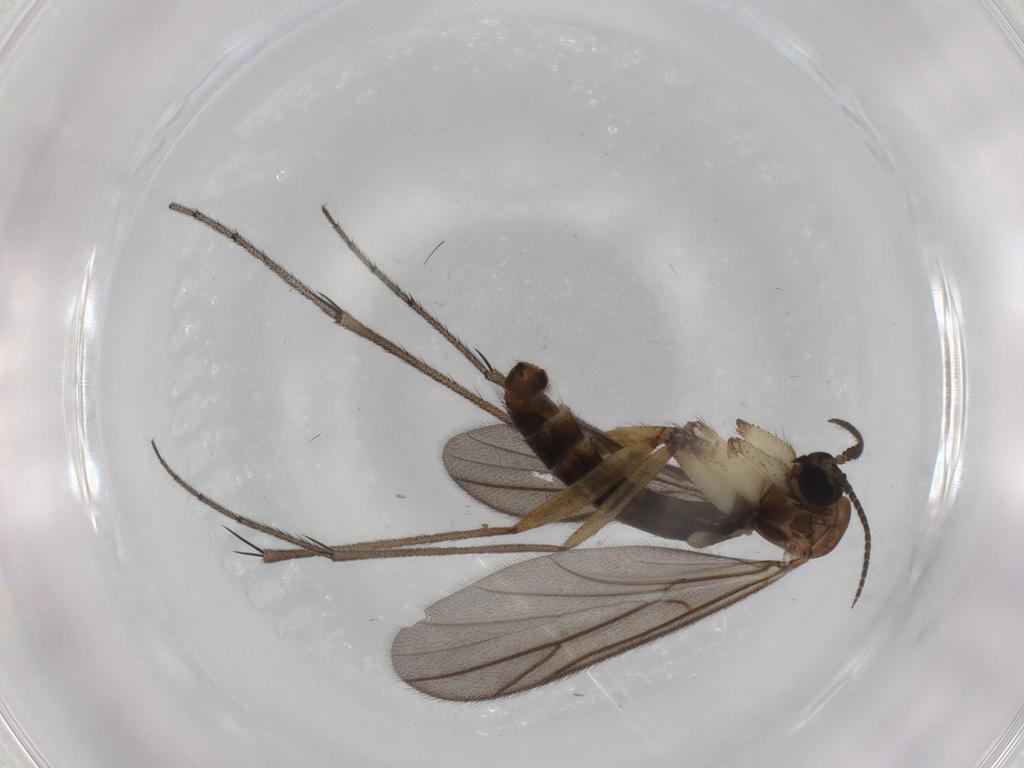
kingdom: Animalia
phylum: Arthropoda
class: Insecta
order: Diptera
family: Ditomyiidae
